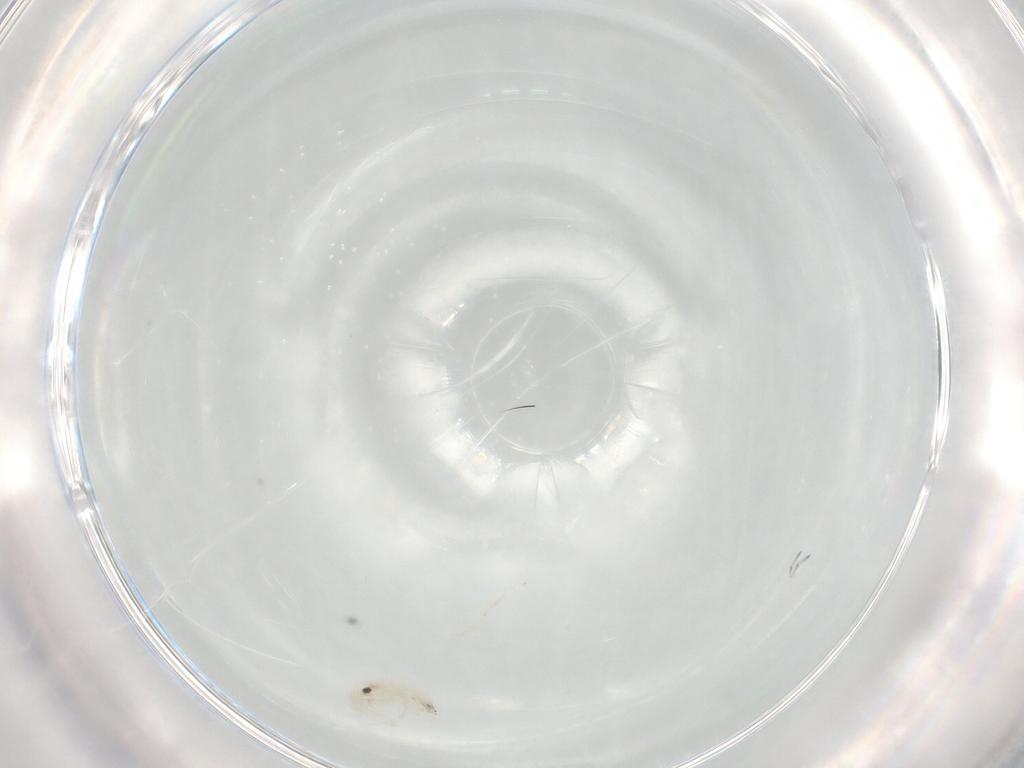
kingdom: Animalia
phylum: Arthropoda
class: Collembola
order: Entomobryomorpha
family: Entomobryidae
